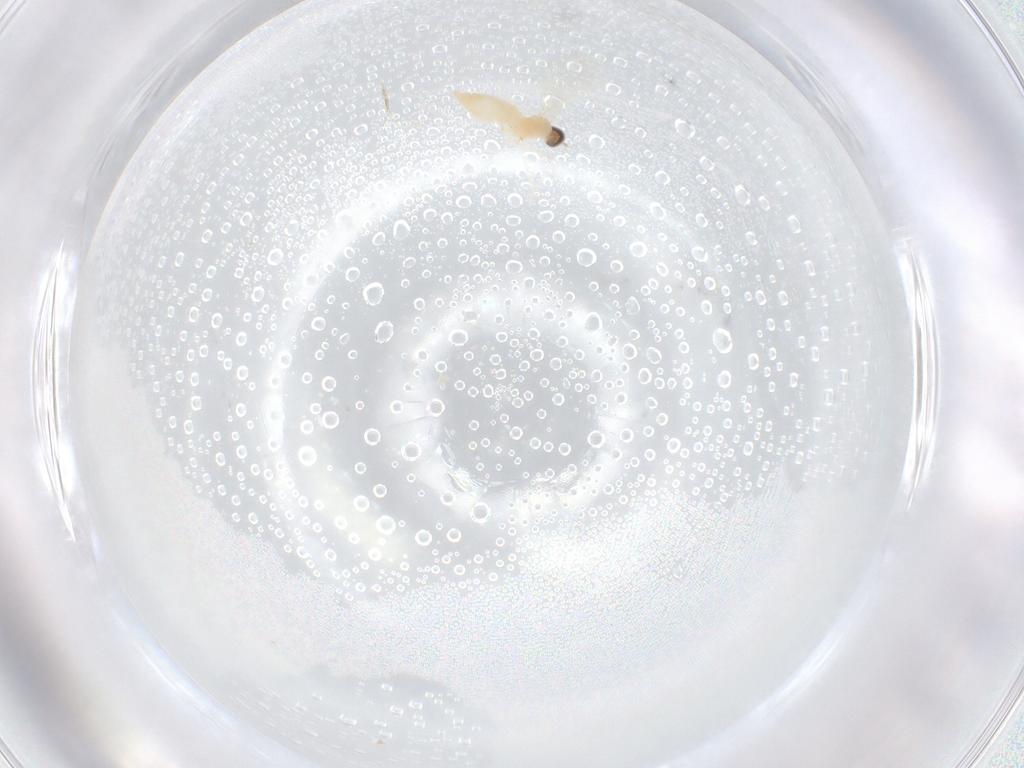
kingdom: Animalia
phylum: Arthropoda
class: Insecta
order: Diptera
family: Cecidomyiidae
